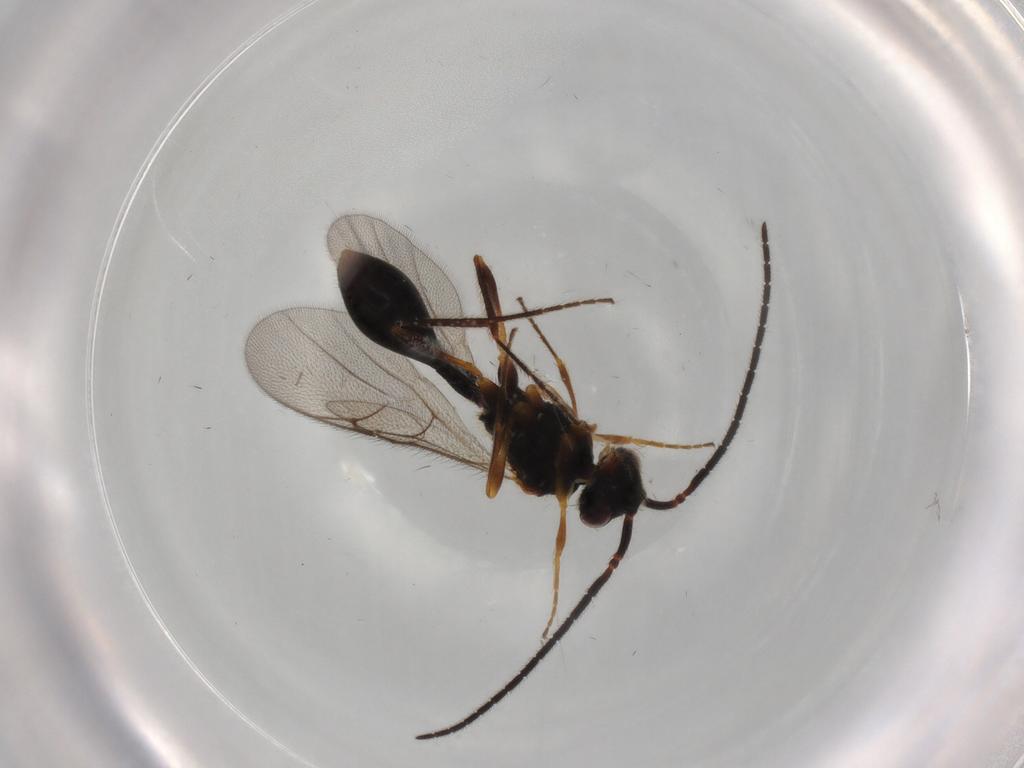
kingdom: Animalia
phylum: Arthropoda
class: Insecta
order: Hymenoptera
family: Diapriidae
